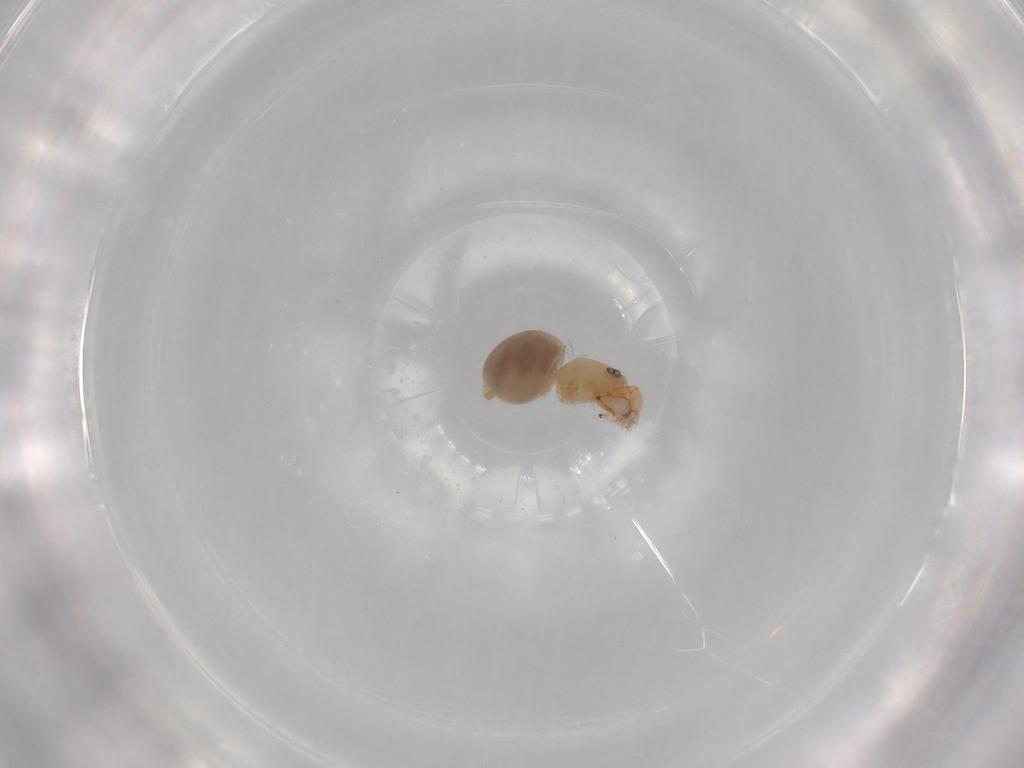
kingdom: Animalia
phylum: Arthropoda
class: Arachnida
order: Araneae
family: Oonopidae
